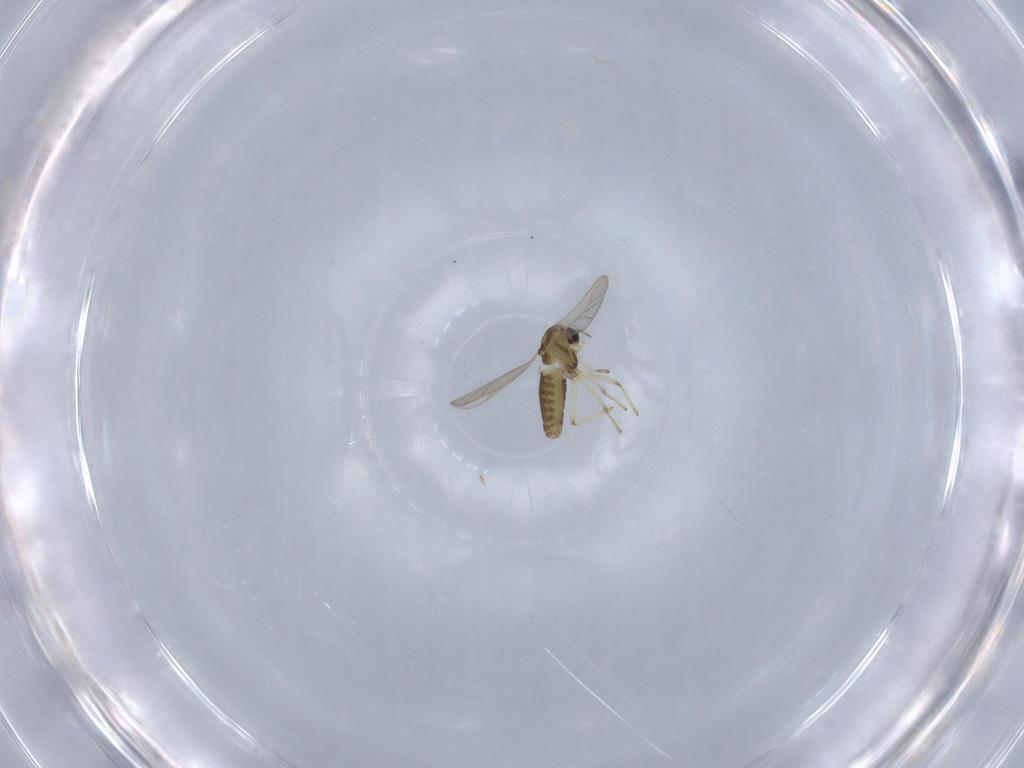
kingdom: Animalia
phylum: Arthropoda
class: Insecta
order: Diptera
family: Chironomidae
